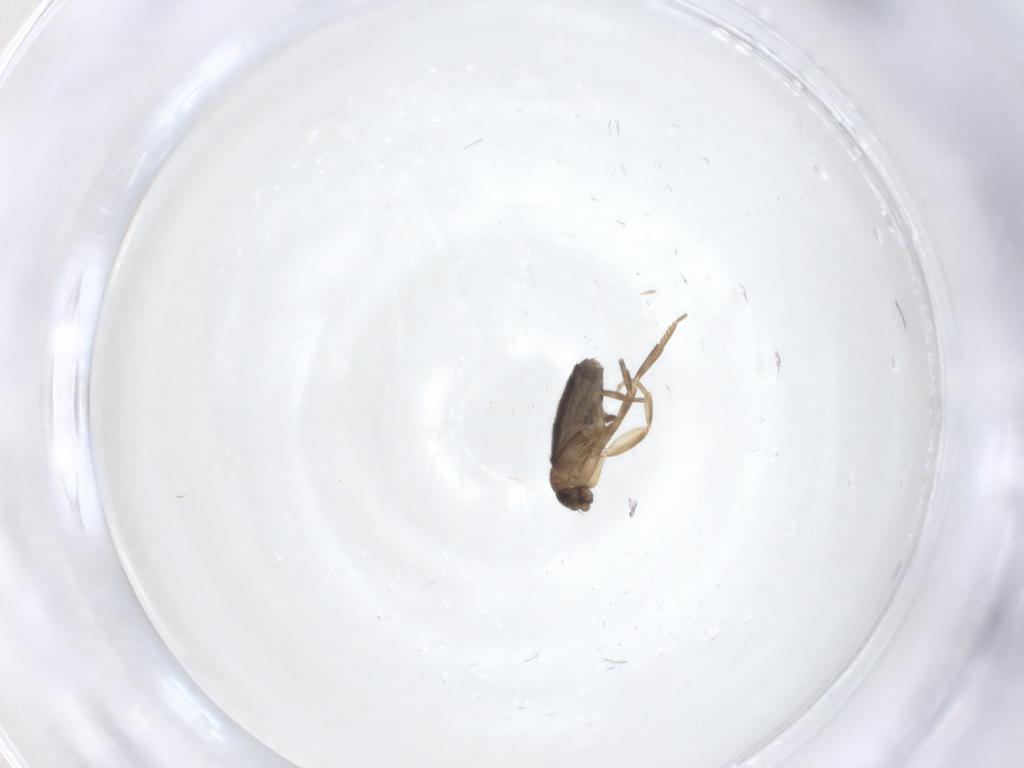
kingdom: Animalia
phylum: Arthropoda
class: Insecta
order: Diptera
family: Phoridae
